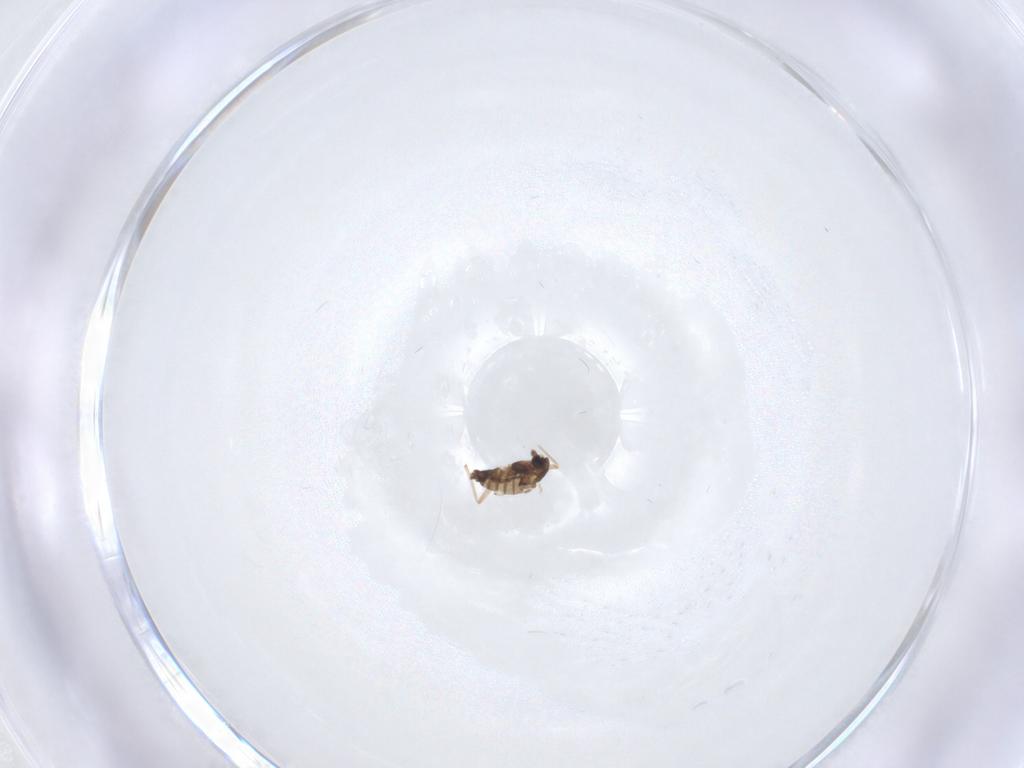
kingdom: Animalia
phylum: Arthropoda
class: Insecta
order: Diptera
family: Chironomidae
